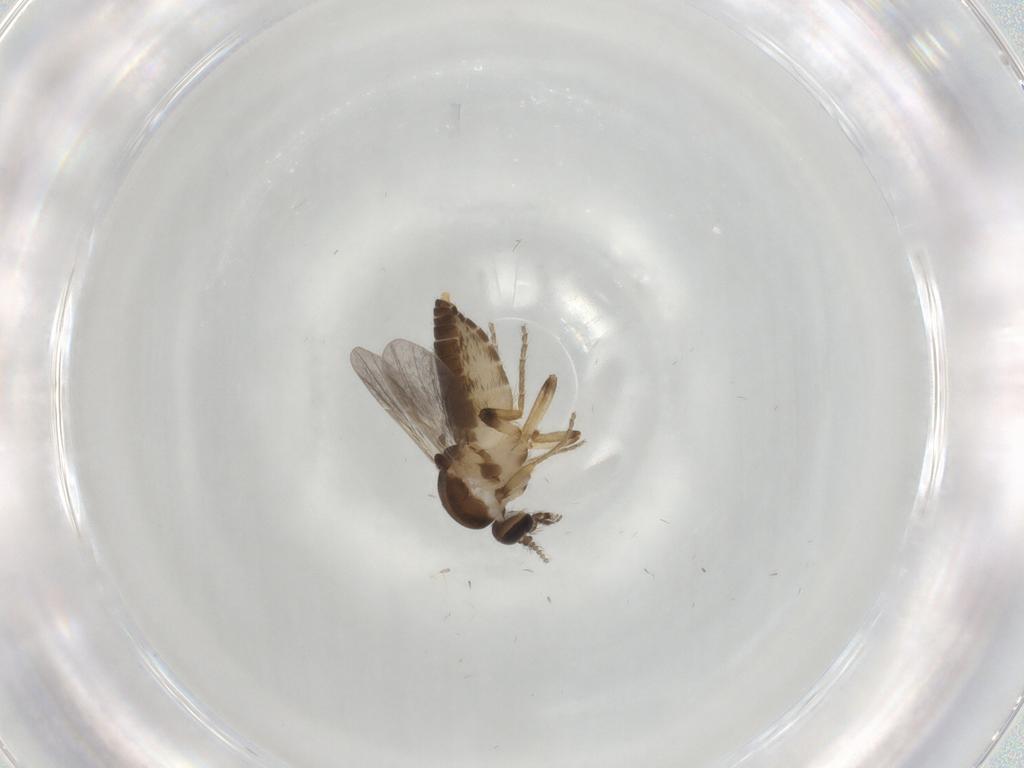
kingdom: Animalia
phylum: Arthropoda
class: Insecta
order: Diptera
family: Ceratopogonidae
